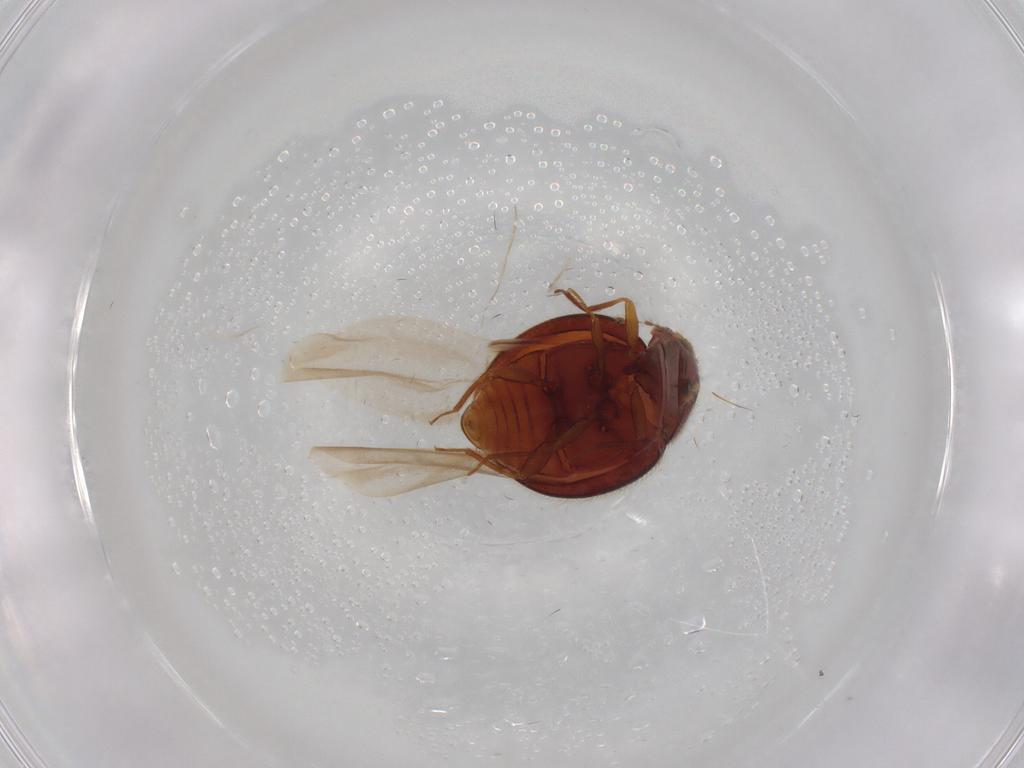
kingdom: Animalia
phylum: Arthropoda
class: Insecta
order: Coleoptera
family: Anamorphidae
